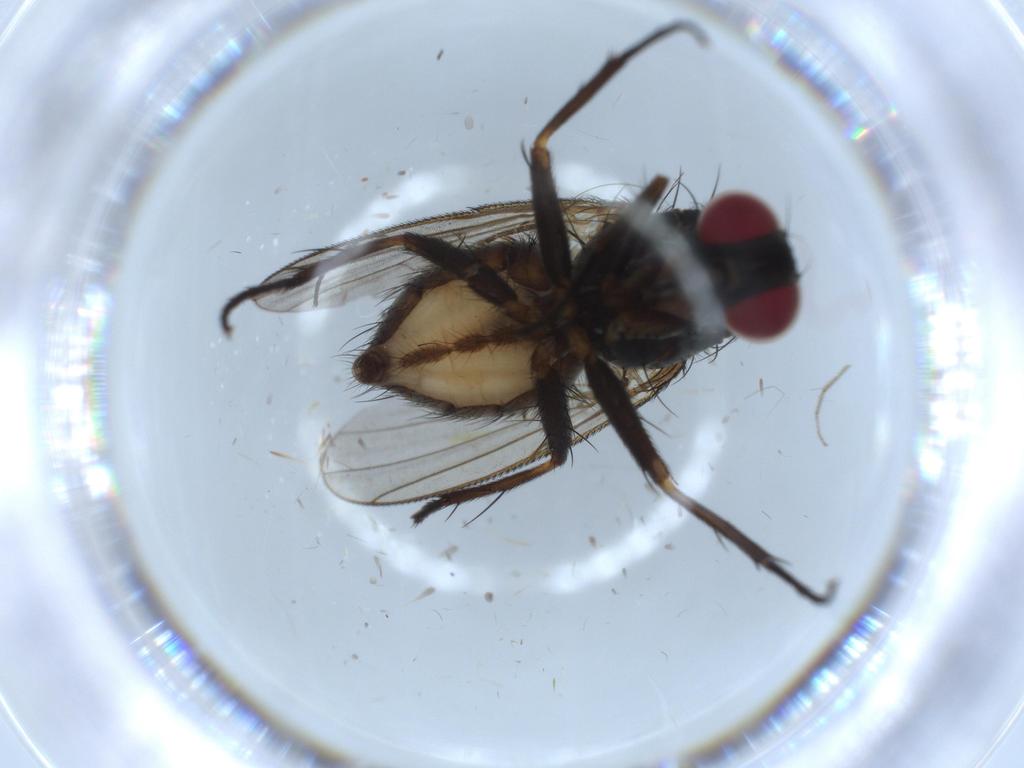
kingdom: Animalia
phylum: Arthropoda
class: Insecta
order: Diptera
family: Muscidae
